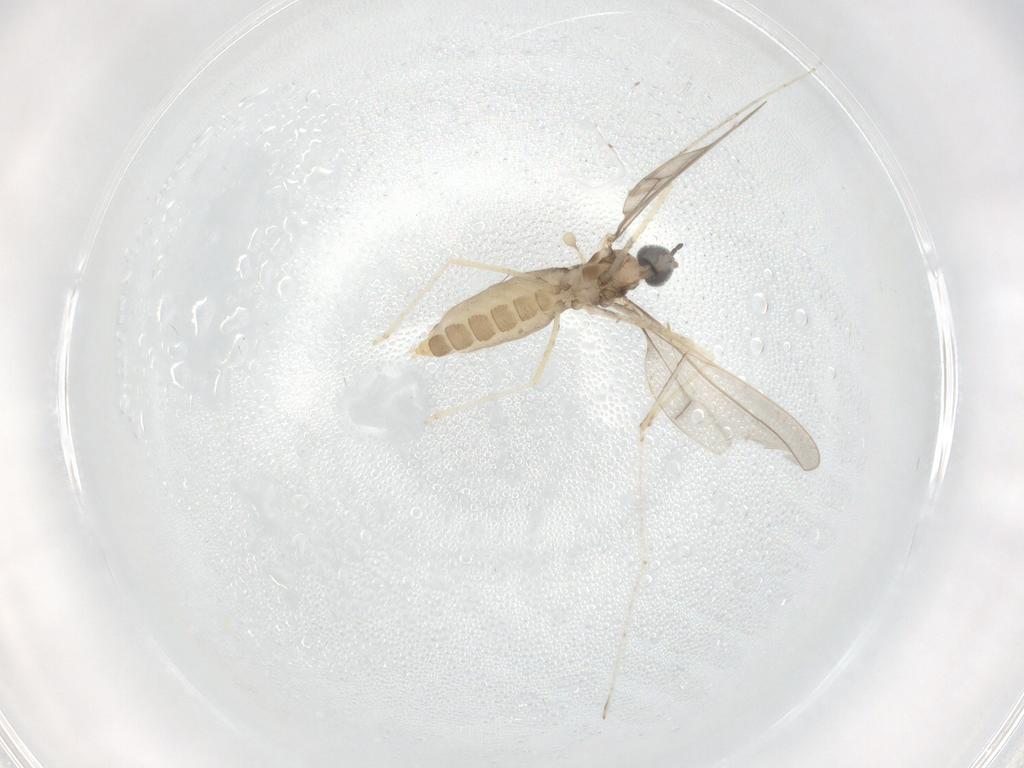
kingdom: Animalia
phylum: Arthropoda
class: Insecta
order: Diptera
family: Cecidomyiidae
